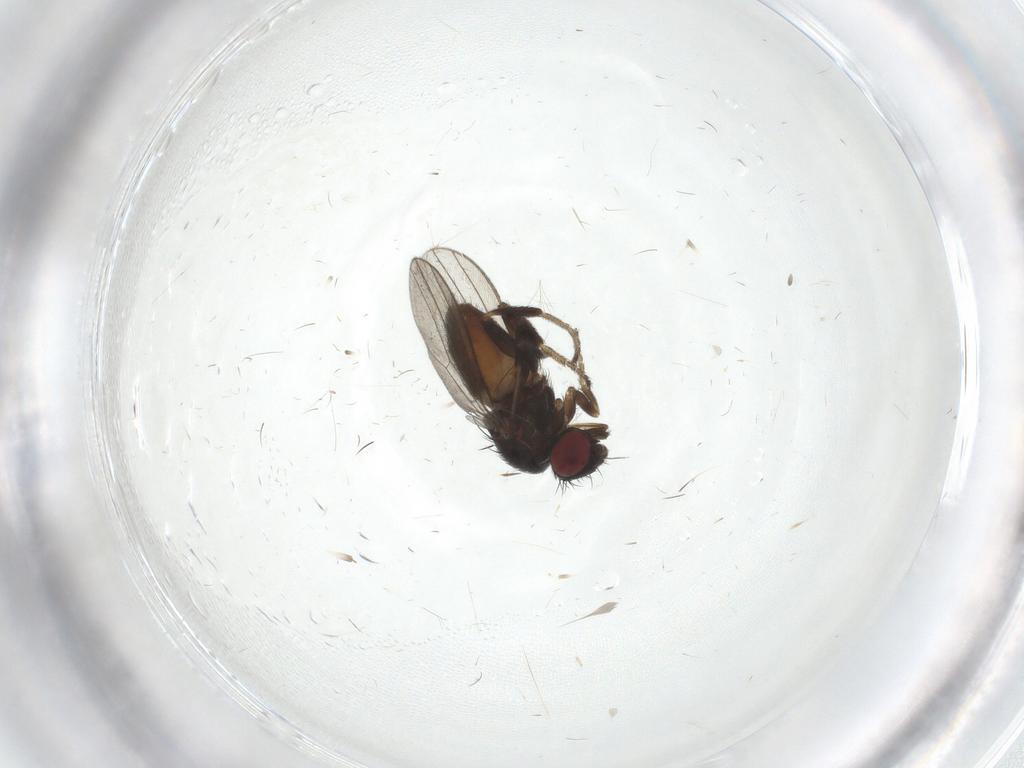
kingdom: Animalia
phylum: Arthropoda
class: Insecta
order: Diptera
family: Milichiidae
